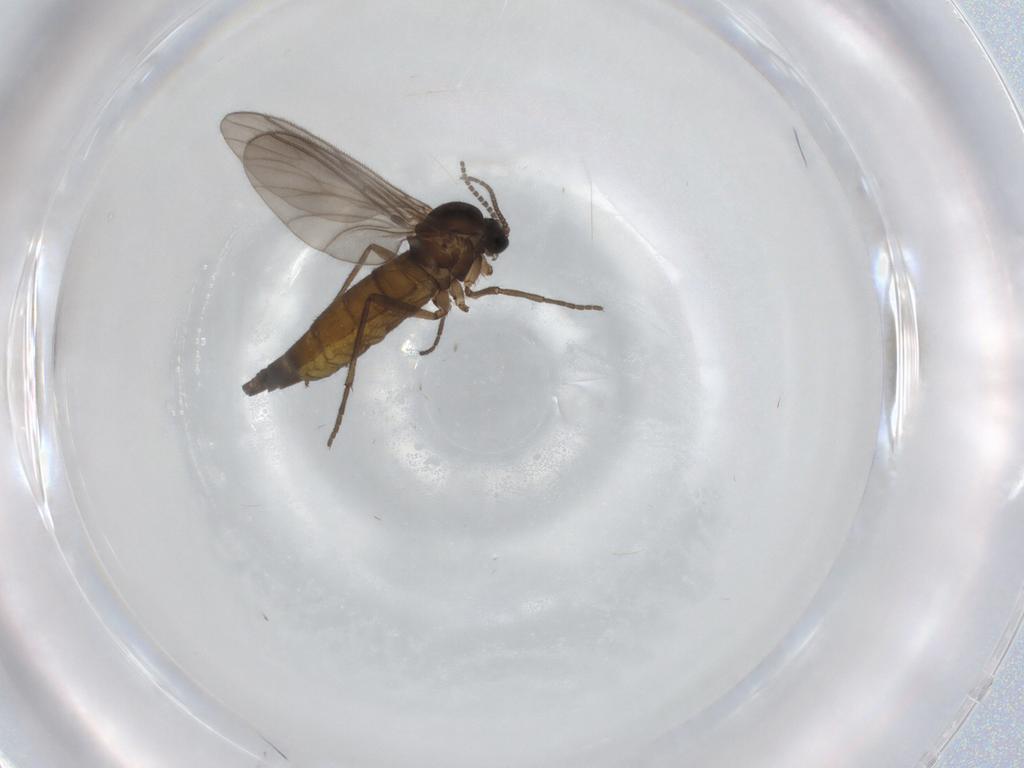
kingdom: Animalia
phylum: Arthropoda
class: Insecta
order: Diptera
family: Sciaridae
